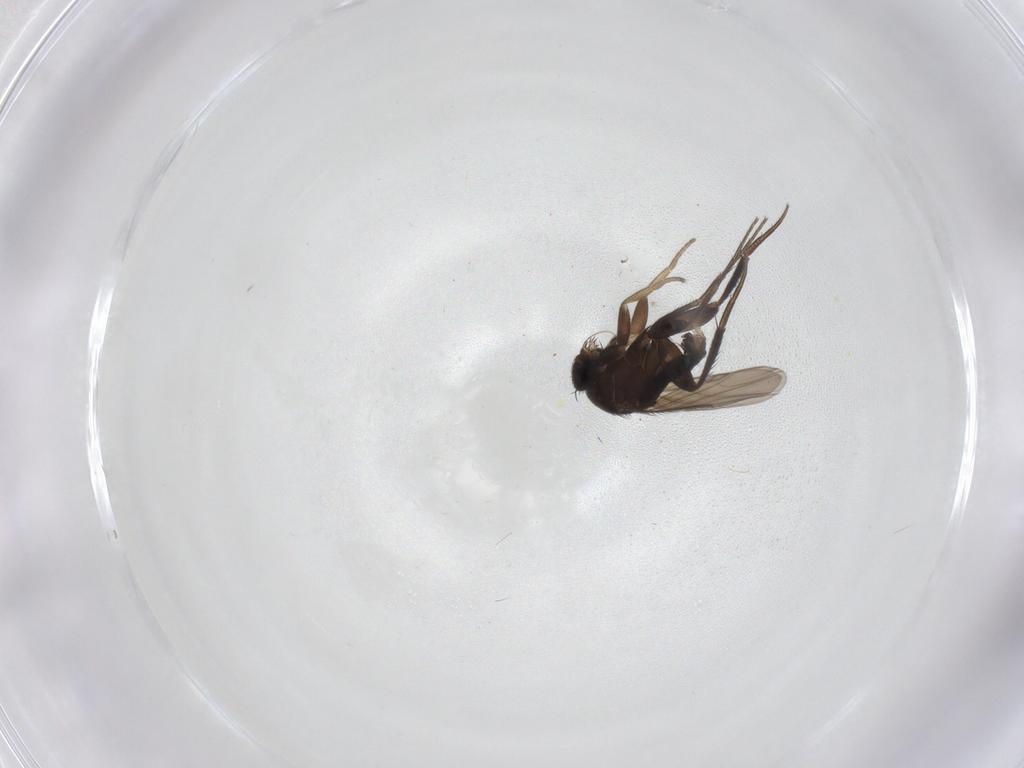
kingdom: Animalia
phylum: Arthropoda
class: Insecta
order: Diptera
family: Phoridae
